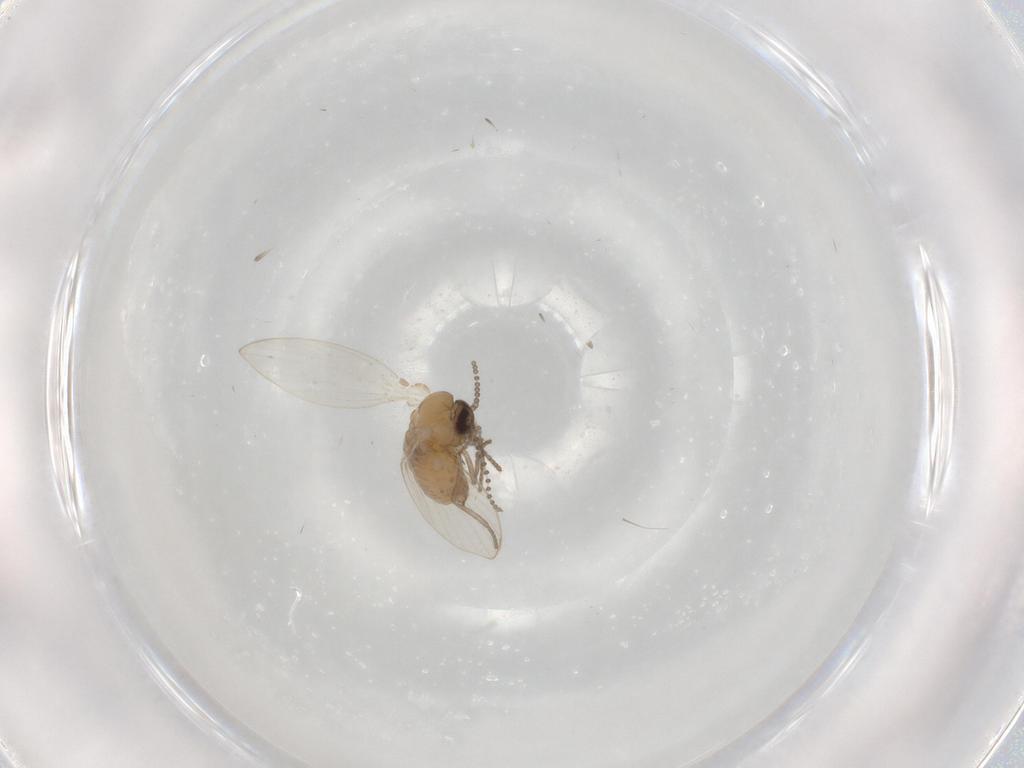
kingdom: Animalia
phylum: Arthropoda
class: Insecta
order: Diptera
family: Psychodidae
